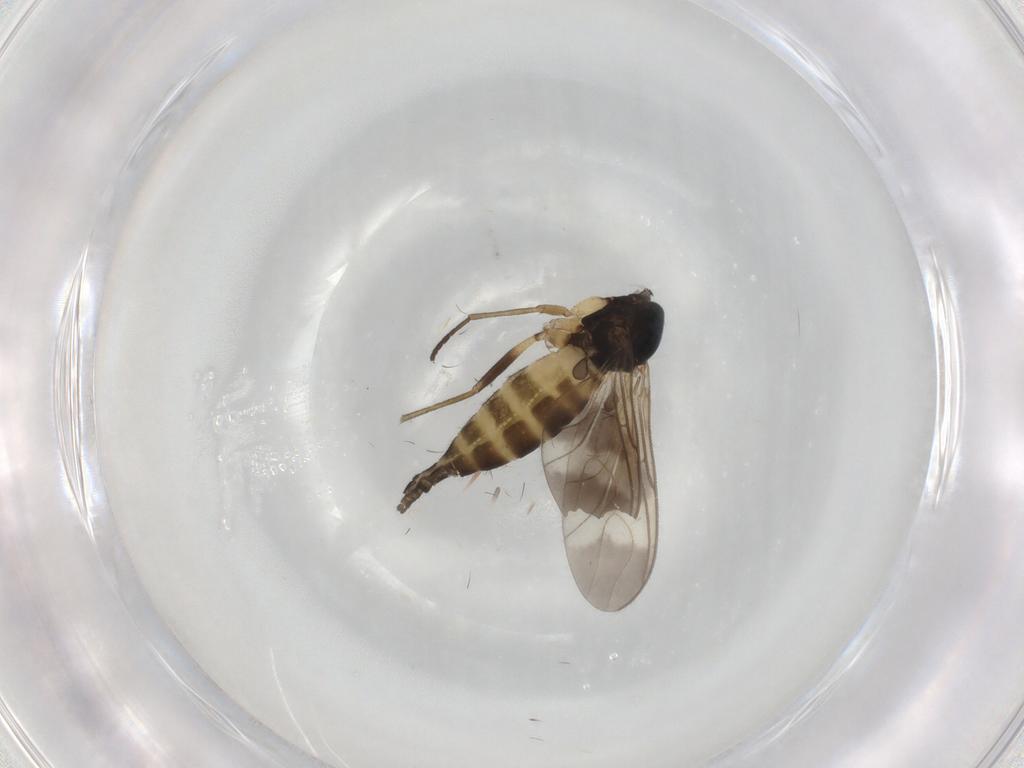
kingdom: Animalia
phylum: Arthropoda
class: Insecta
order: Diptera
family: Sciaridae
